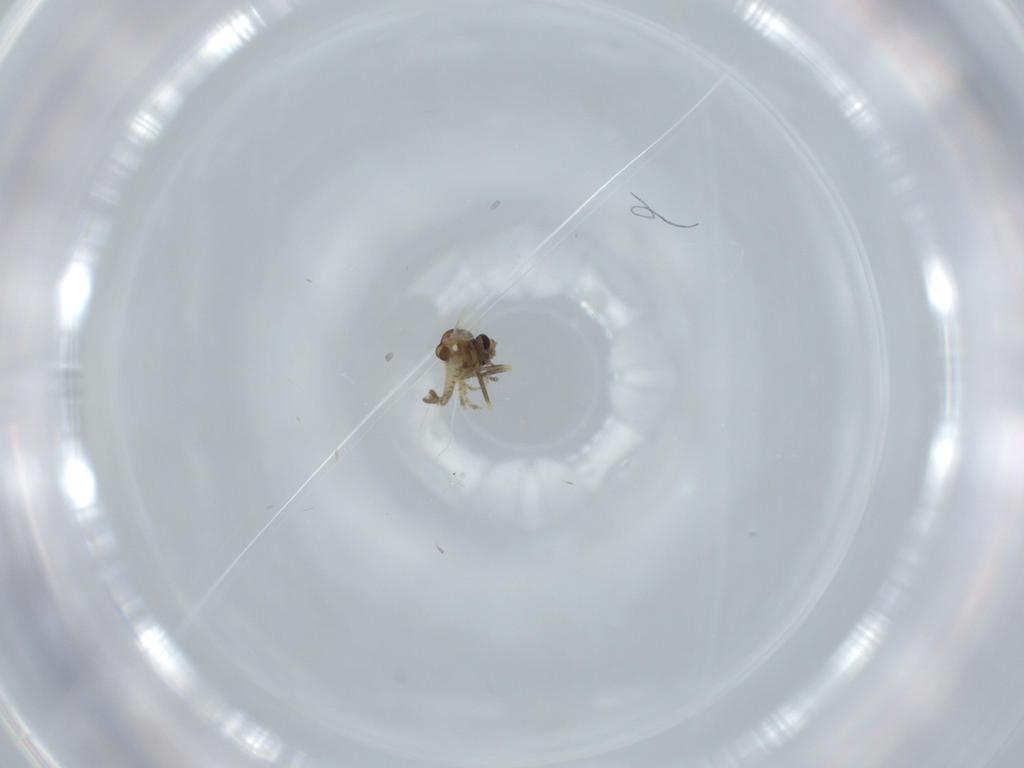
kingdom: Animalia
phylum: Arthropoda
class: Insecta
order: Diptera
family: Ceratopogonidae
